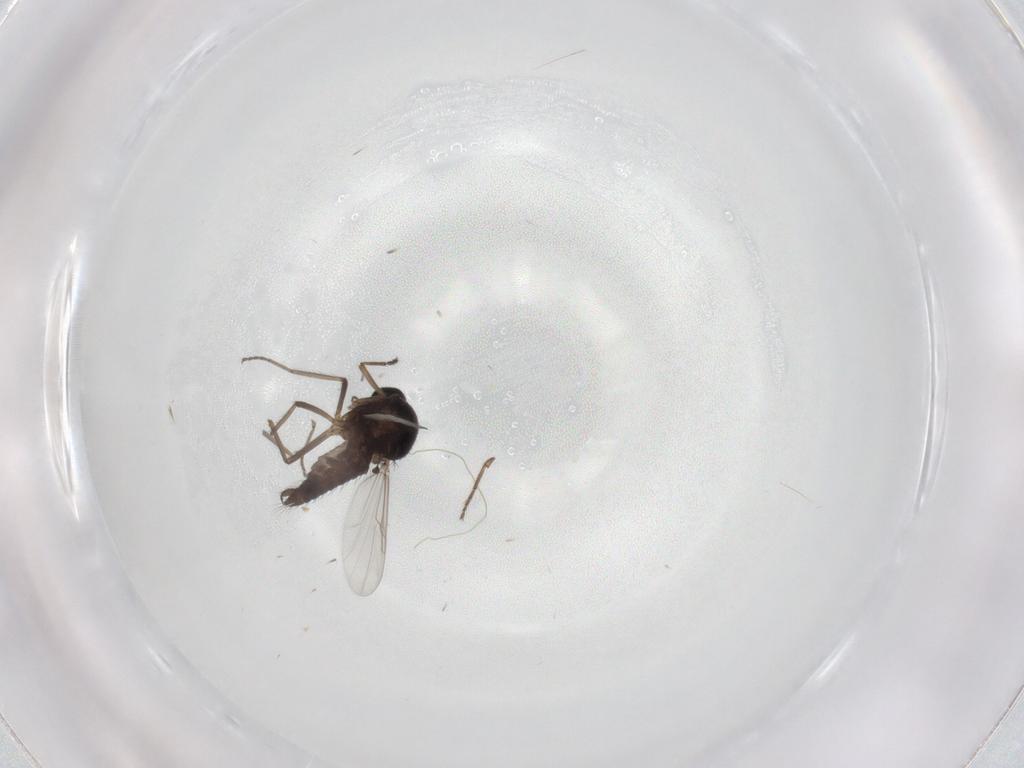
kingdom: Animalia
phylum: Arthropoda
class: Insecta
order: Diptera
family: Ceratopogonidae
